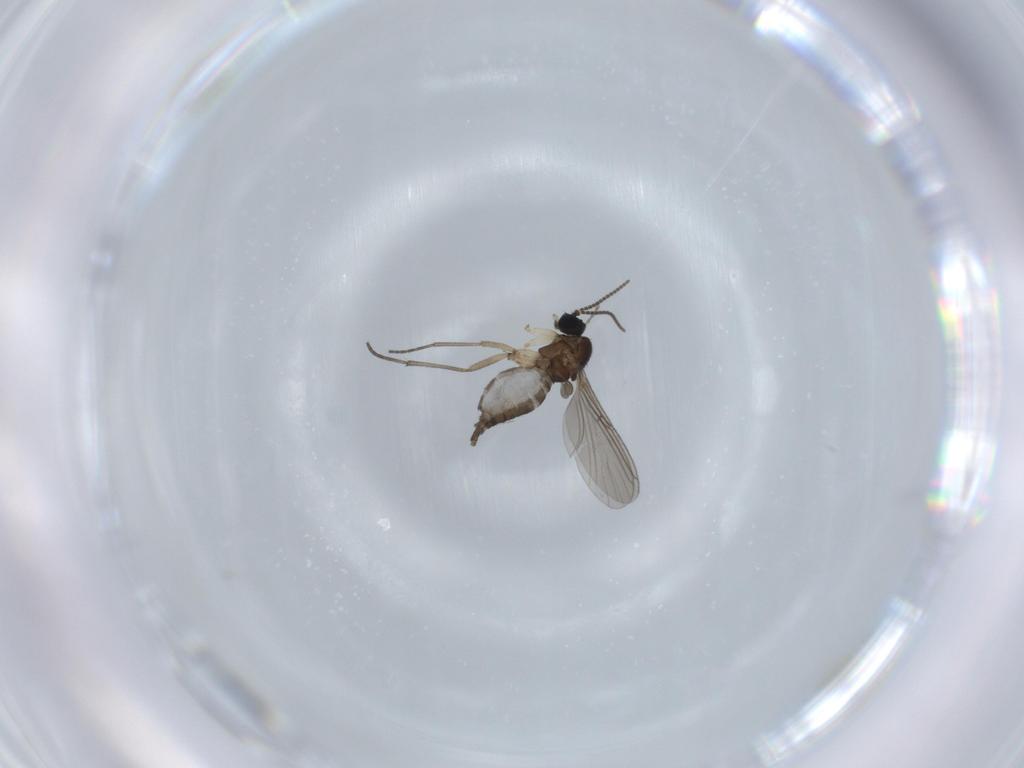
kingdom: Animalia
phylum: Arthropoda
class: Insecta
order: Diptera
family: Sciaridae
